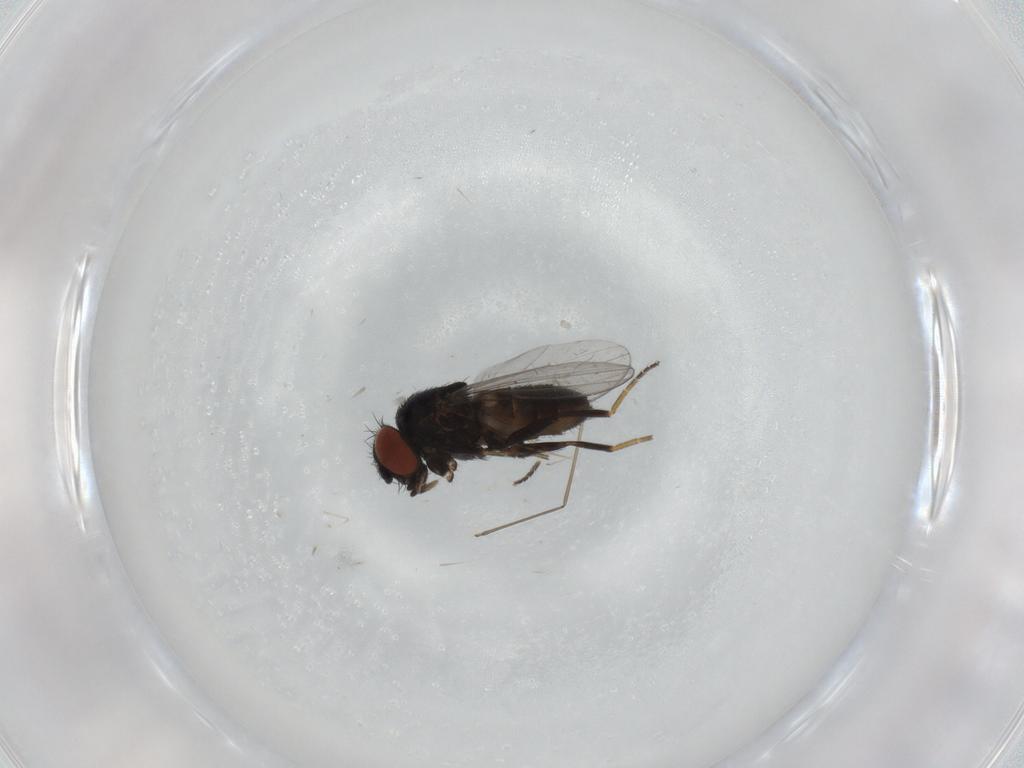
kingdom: Animalia
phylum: Arthropoda
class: Insecta
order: Diptera
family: Milichiidae
